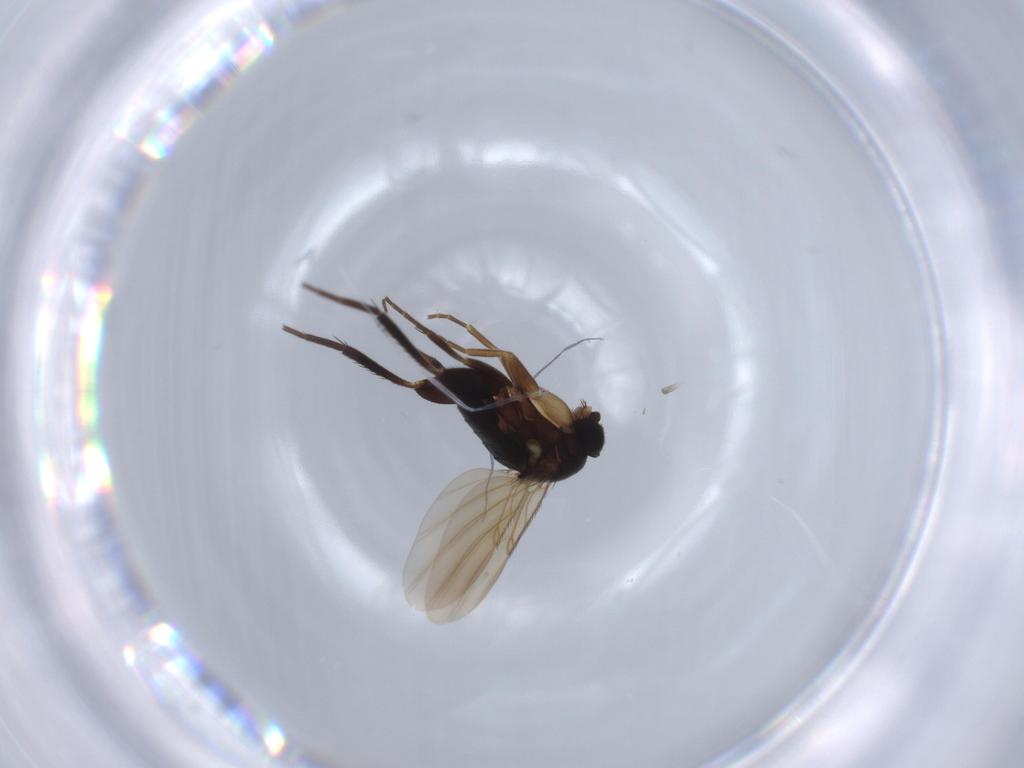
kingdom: Animalia
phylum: Arthropoda
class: Insecta
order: Diptera
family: Phoridae
